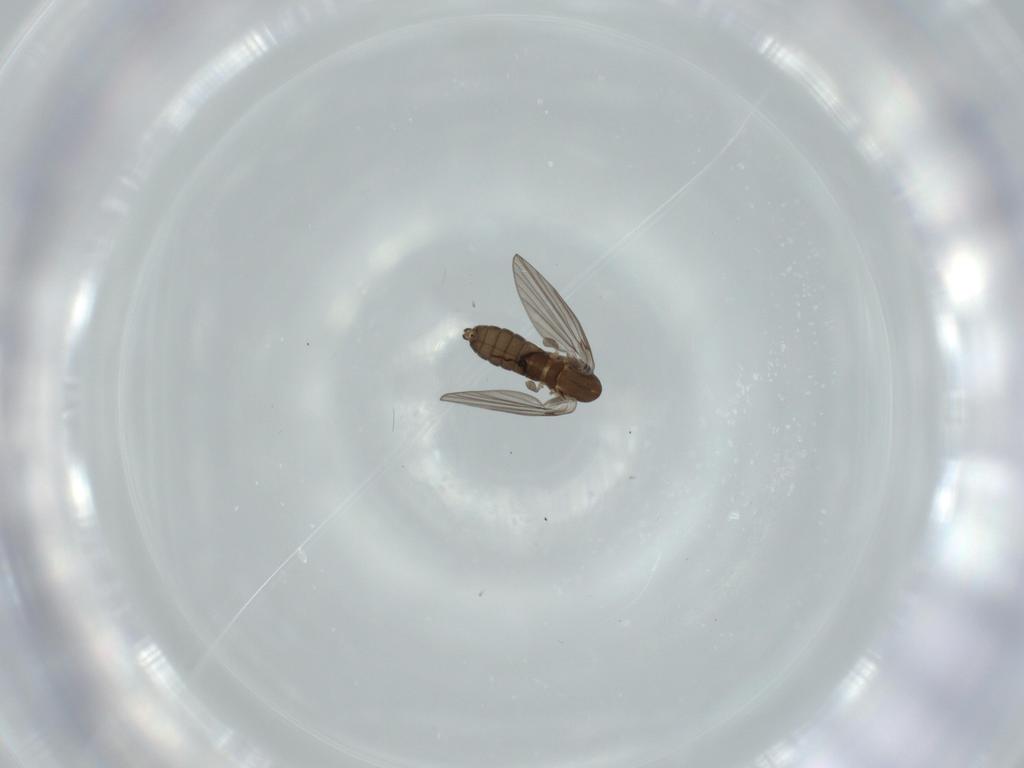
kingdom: Animalia
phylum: Arthropoda
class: Insecta
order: Diptera
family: Psychodidae
